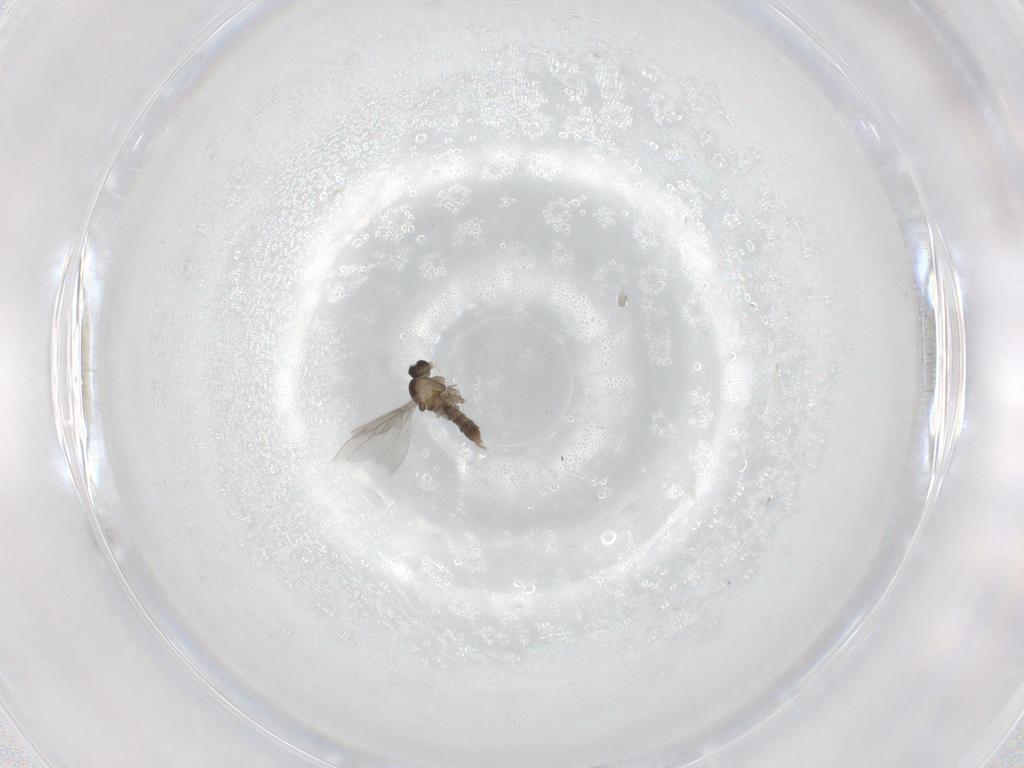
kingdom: Animalia
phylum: Arthropoda
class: Insecta
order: Diptera
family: Cecidomyiidae
